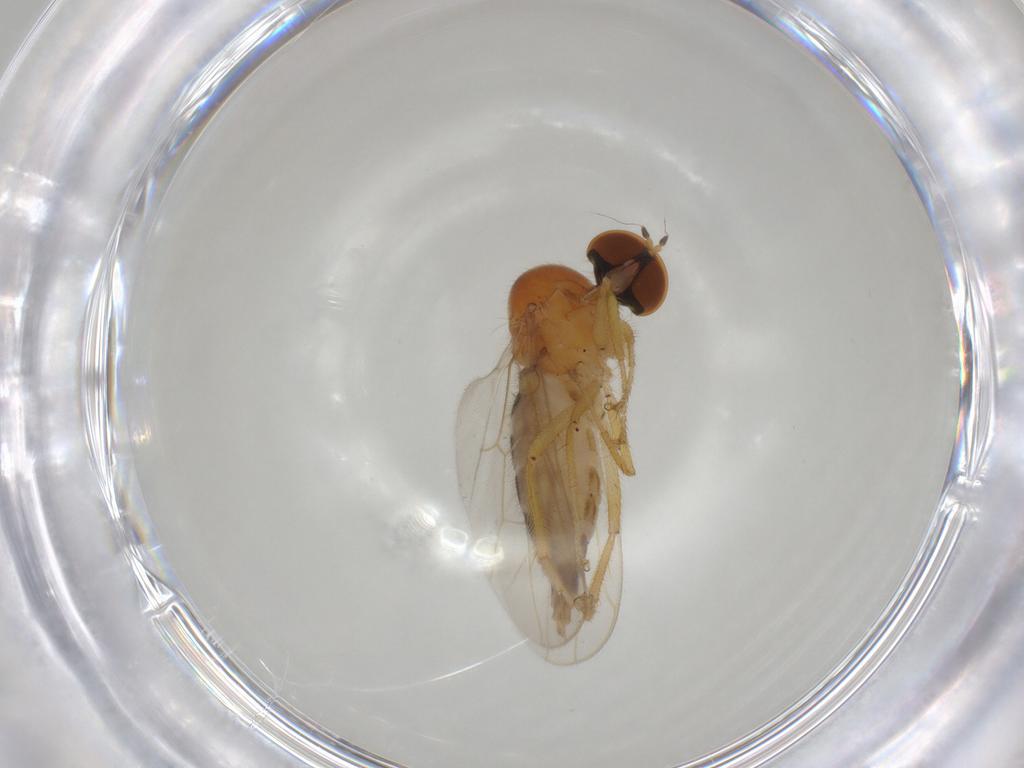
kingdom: Animalia
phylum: Arthropoda
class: Insecta
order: Diptera
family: Hybotidae
